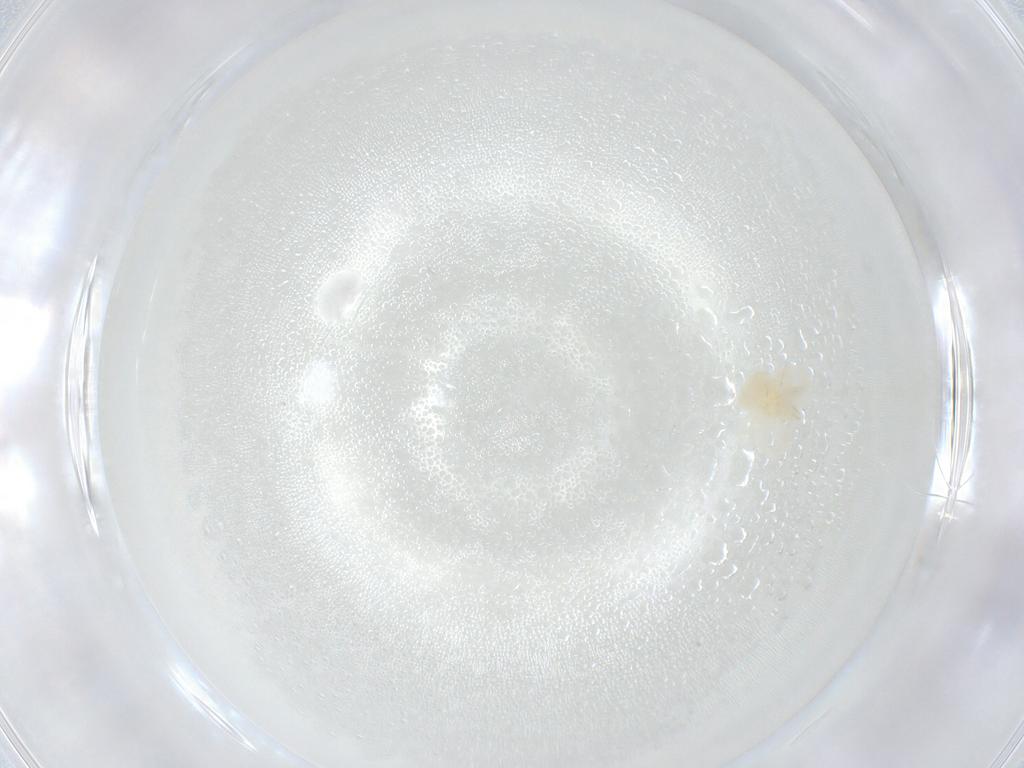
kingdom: Animalia
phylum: Arthropoda
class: Arachnida
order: Trombidiformes
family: Anystidae
